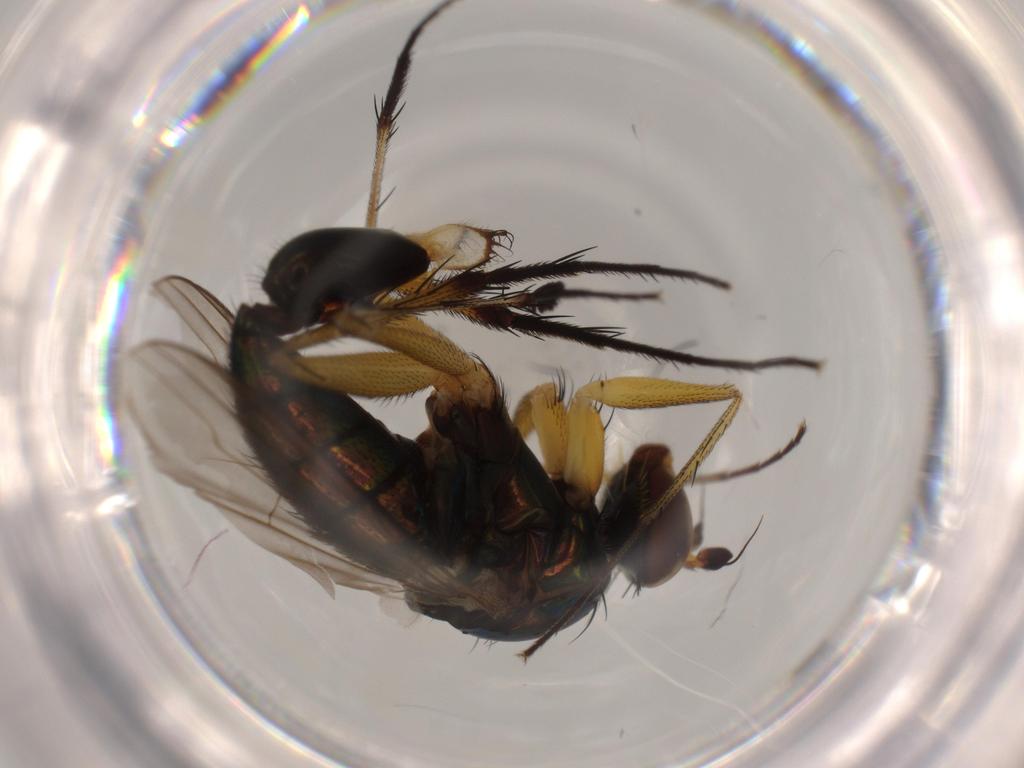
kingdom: Animalia
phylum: Arthropoda
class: Insecta
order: Diptera
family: Dolichopodidae
